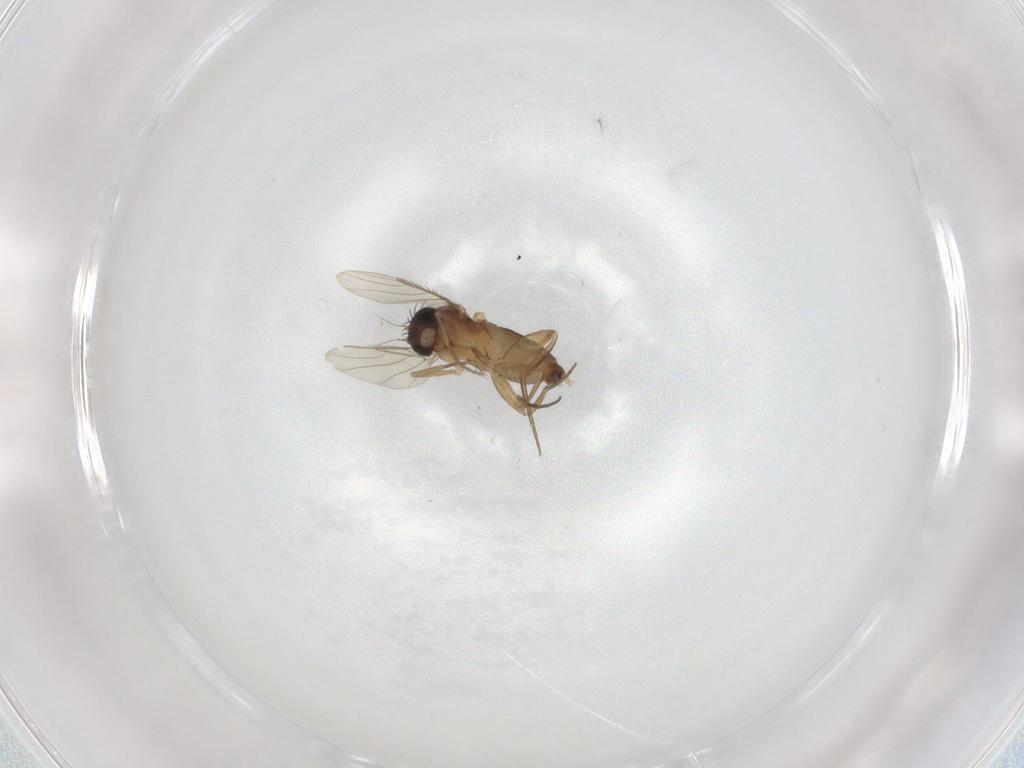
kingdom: Animalia
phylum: Arthropoda
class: Insecta
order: Diptera
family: Phoridae
